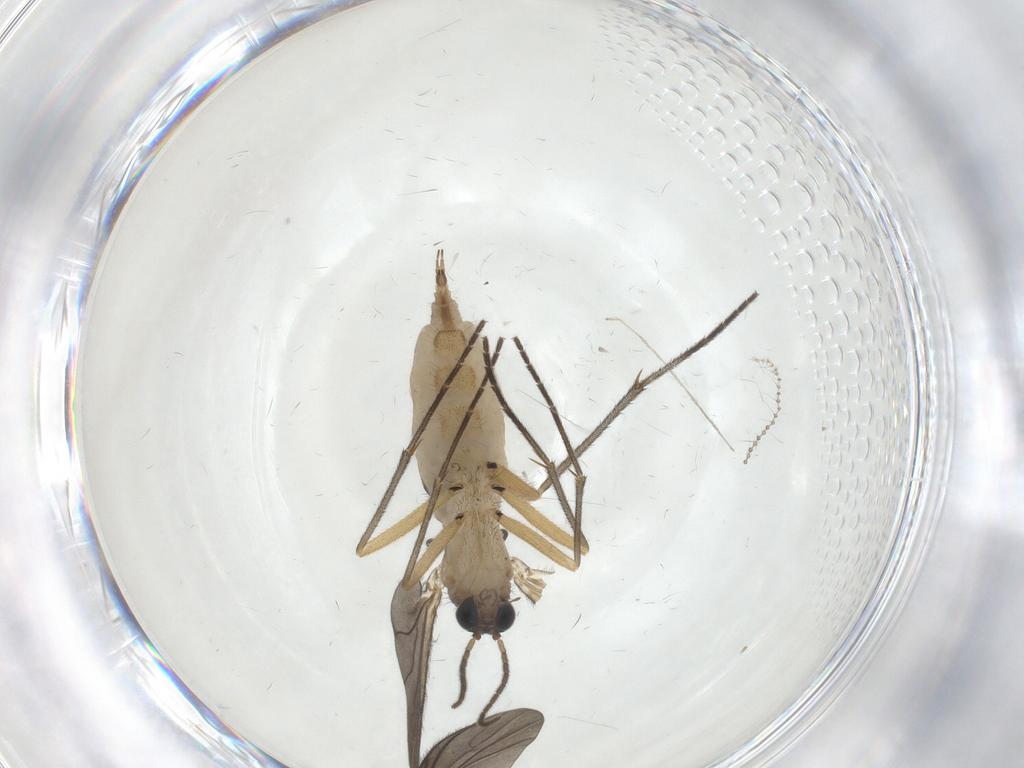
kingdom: Animalia
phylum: Arthropoda
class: Insecta
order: Diptera
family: Sciaridae
